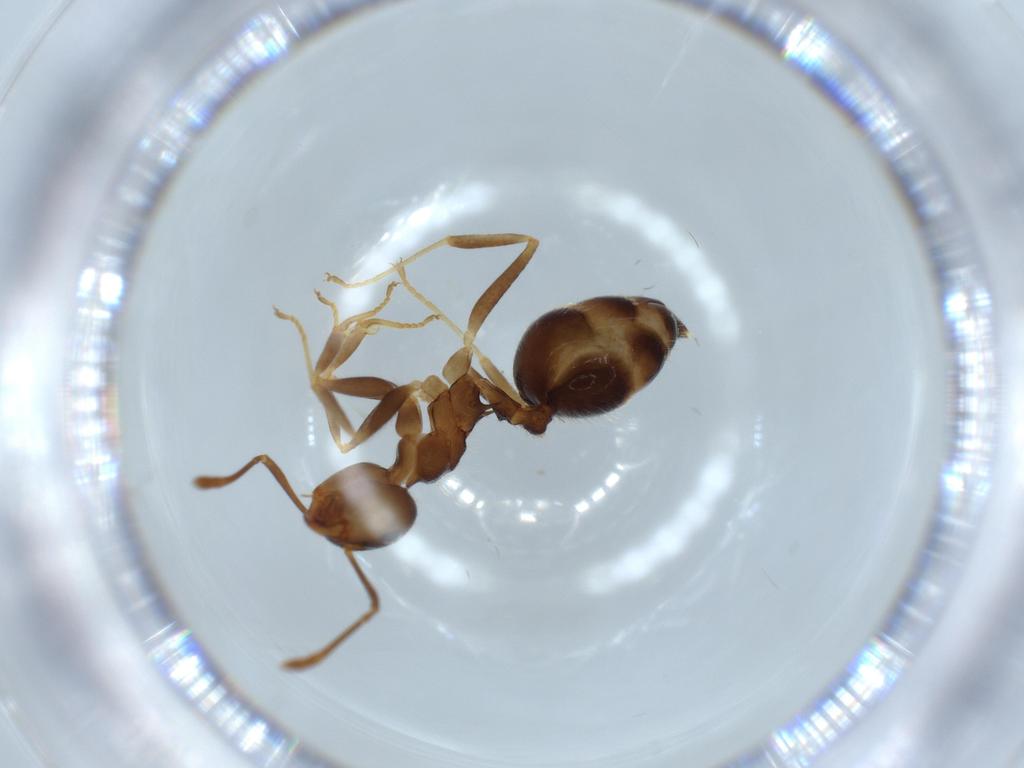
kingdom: Animalia
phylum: Arthropoda
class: Insecta
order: Hymenoptera
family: Formicidae
